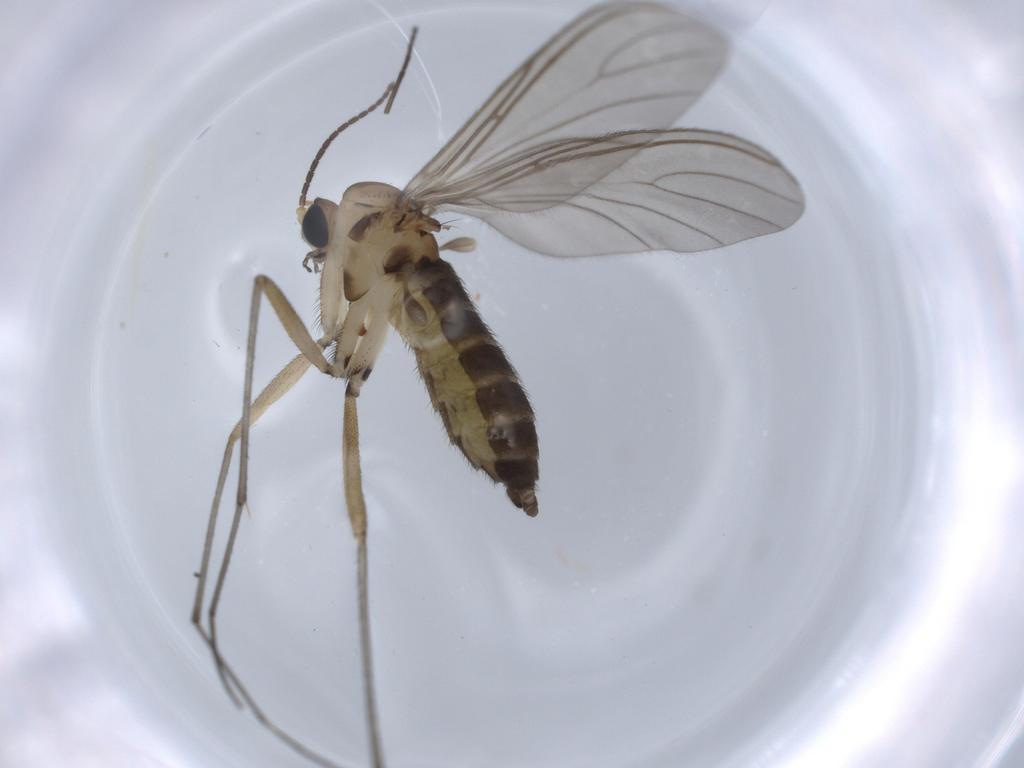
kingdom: Animalia
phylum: Arthropoda
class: Insecta
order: Diptera
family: Sciaridae
